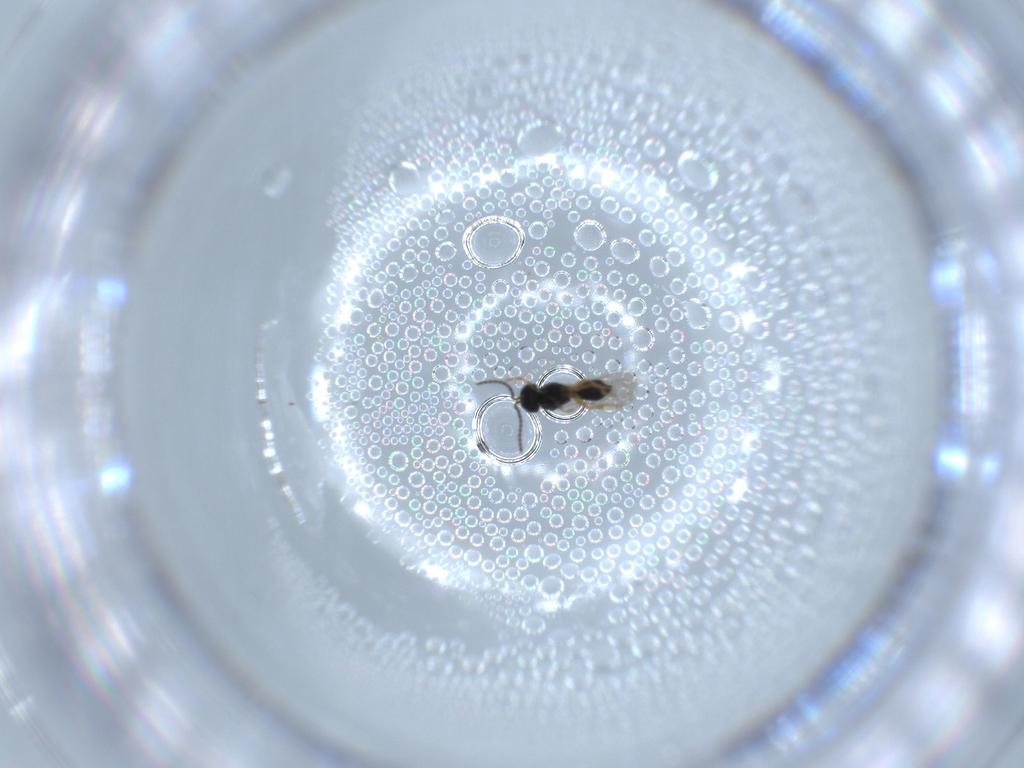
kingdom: Animalia
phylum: Arthropoda
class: Insecta
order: Hymenoptera
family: Scelionidae
